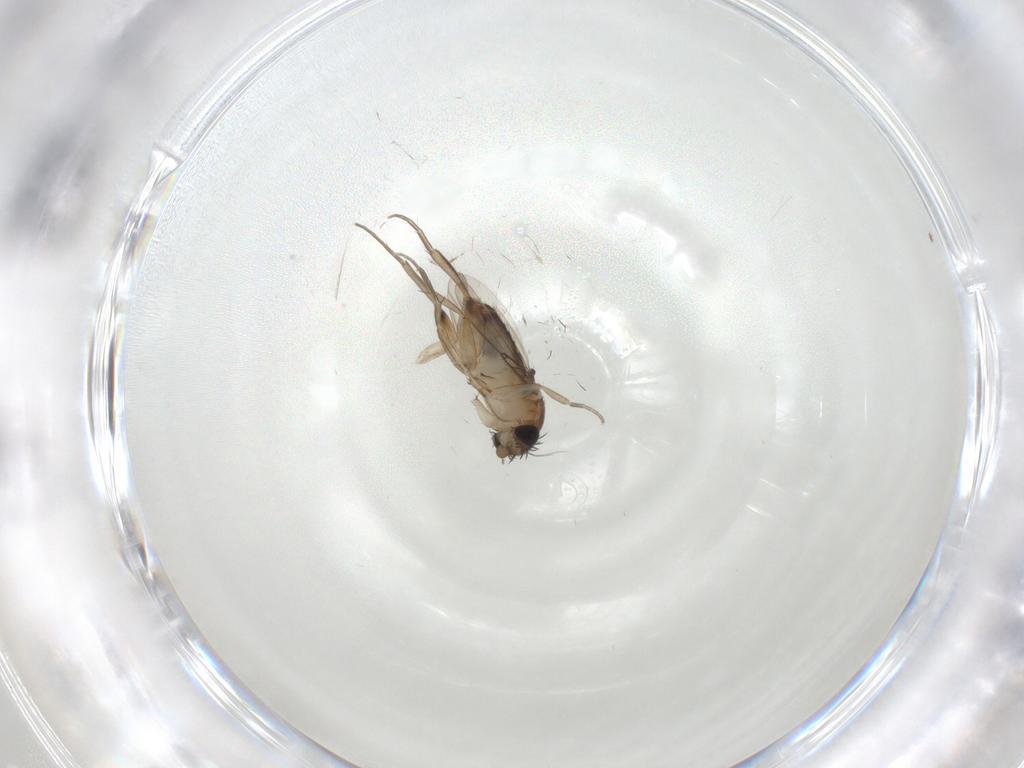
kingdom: Animalia
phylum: Arthropoda
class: Insecta
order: Diptera
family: Phoridae
